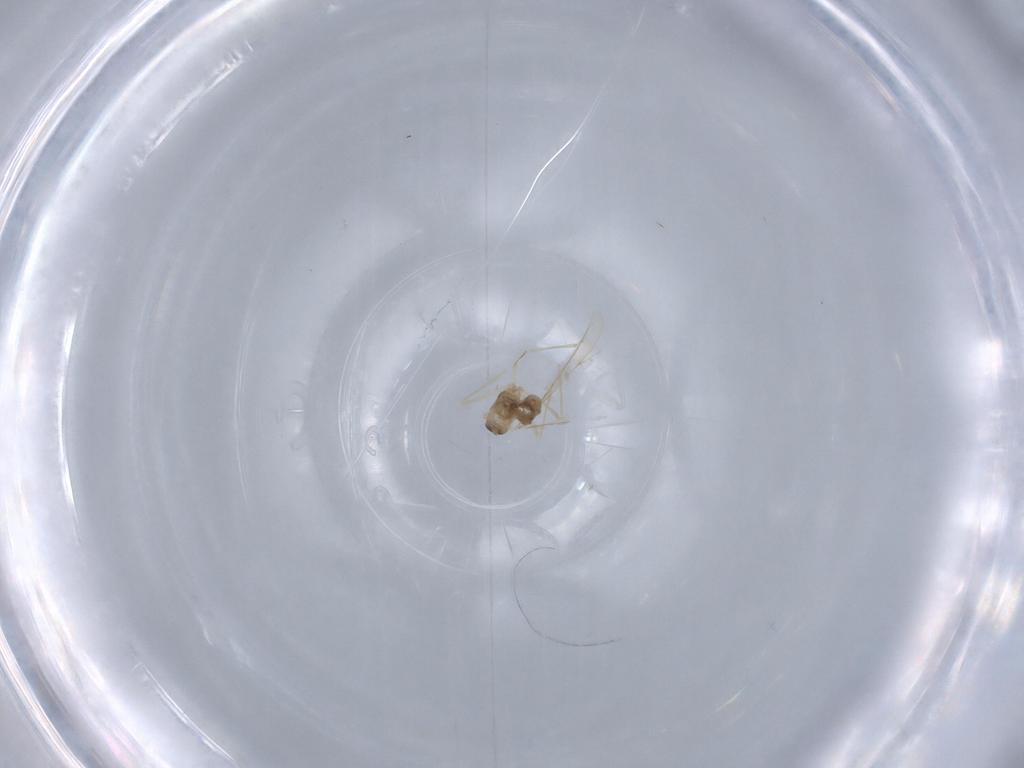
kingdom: Animalia
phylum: Arthropoda
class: Insecta
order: Diptera
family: Cecidomyiidae
